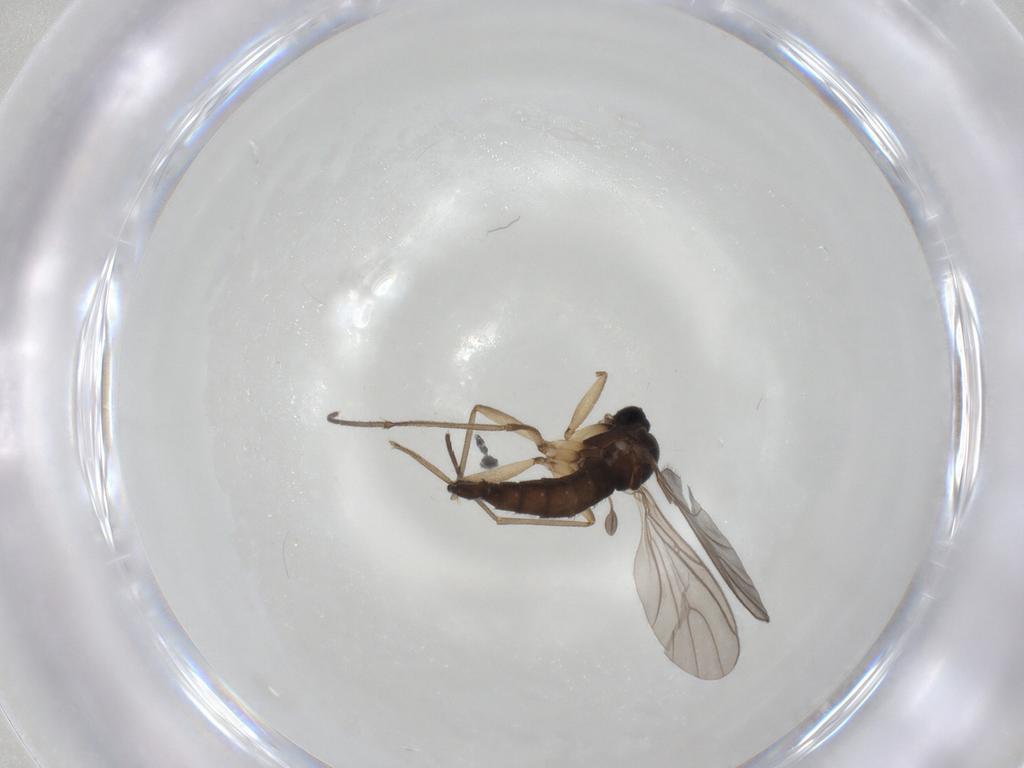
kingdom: Animalia
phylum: Arthropoda
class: Insecta
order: Diptera
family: Sciaridae
